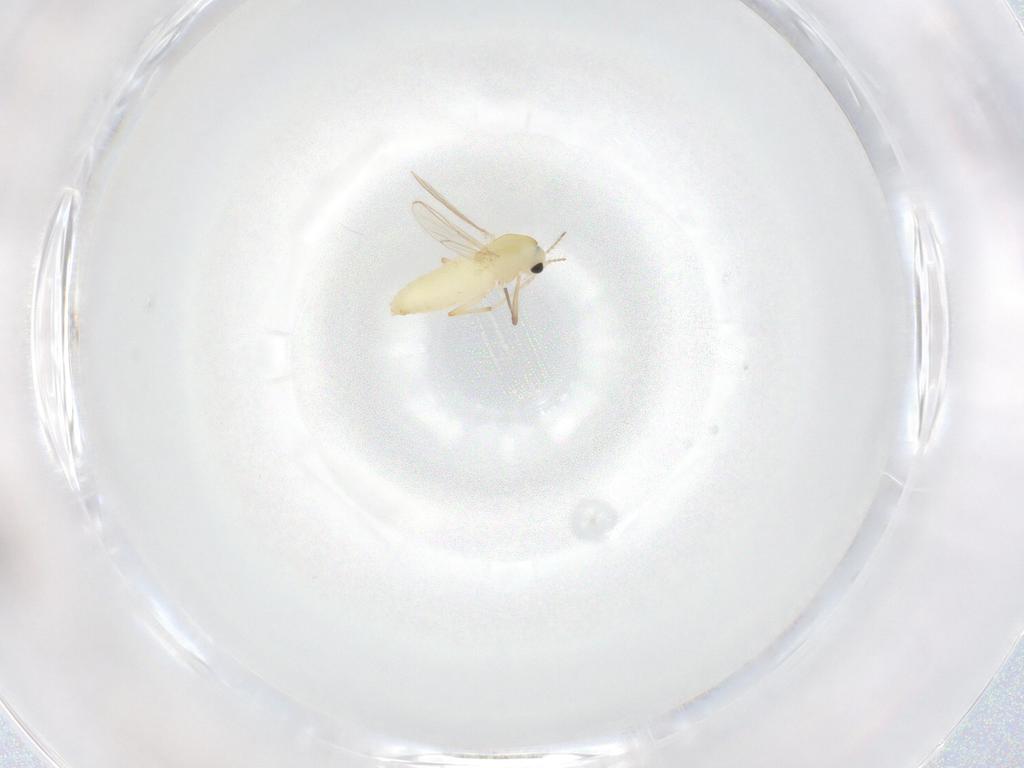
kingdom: Animalia
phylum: Arthropoda
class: Insecta
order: Diptera
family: Chironomidae
